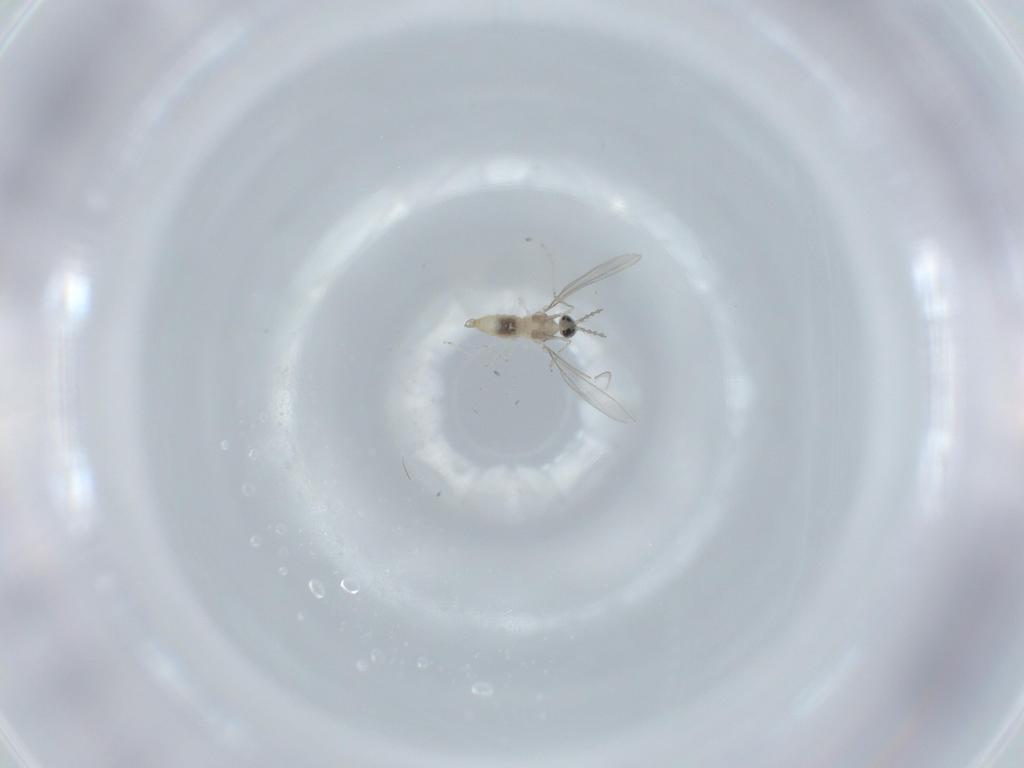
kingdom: Animalia
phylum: Arthropoda
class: Insecta
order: Diptera
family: Cecidomyiidae
